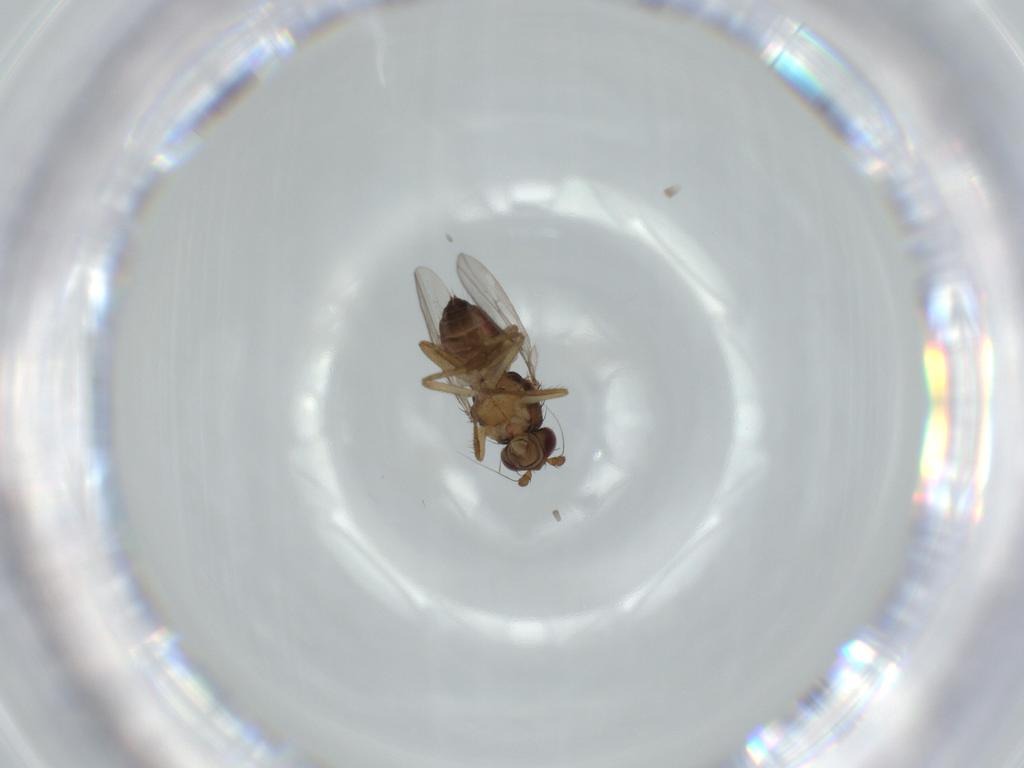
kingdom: Animalia
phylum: Arthropoda
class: Insecta
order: Diptera
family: Sphaeroceridae
